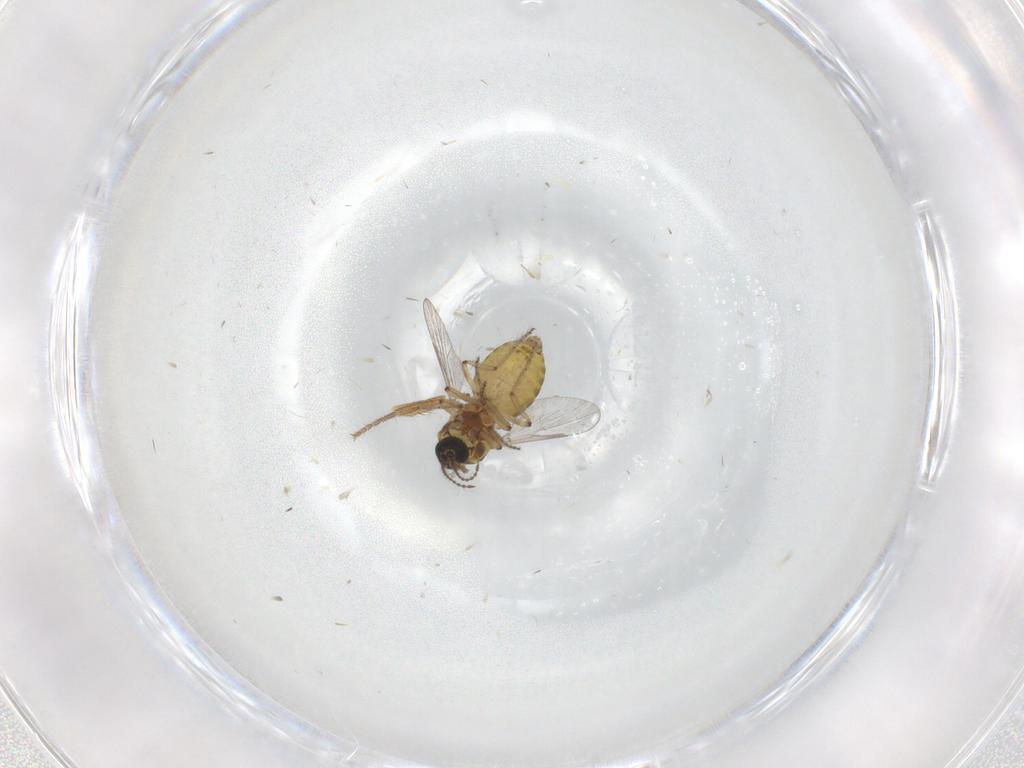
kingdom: Animalia
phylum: Arthropoda
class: Insecta
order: Diptera
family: Ceratopogonidae
